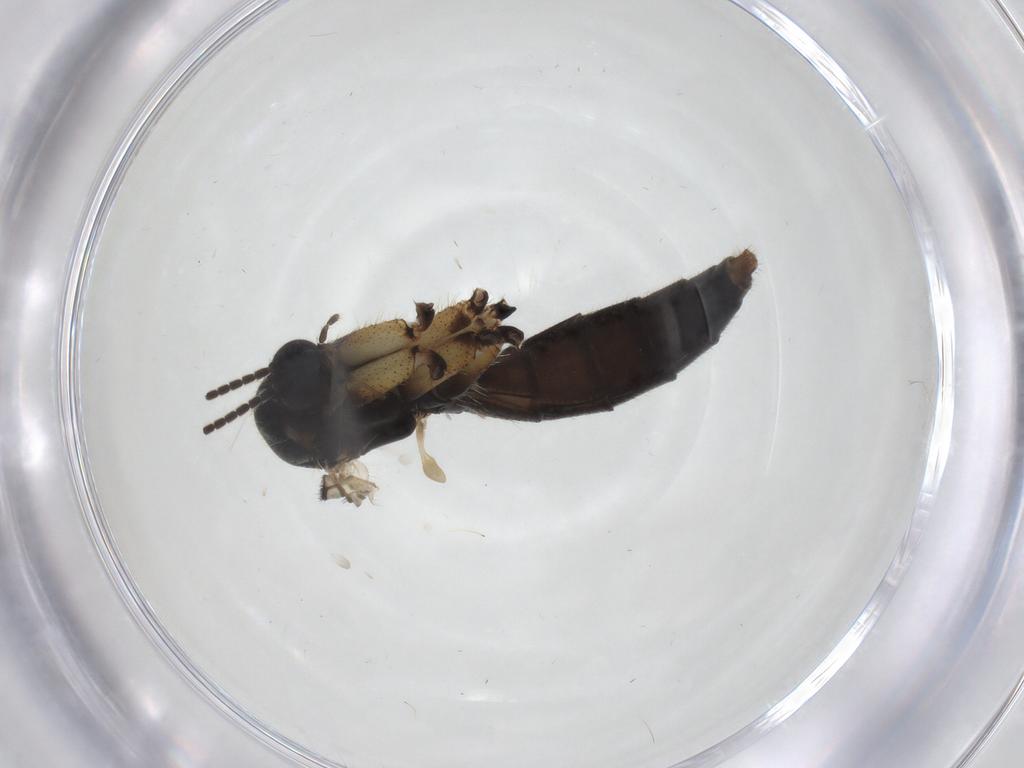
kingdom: Animalia
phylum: Arthropoda
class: Insecta
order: Diptera
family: Mycetophilidae
